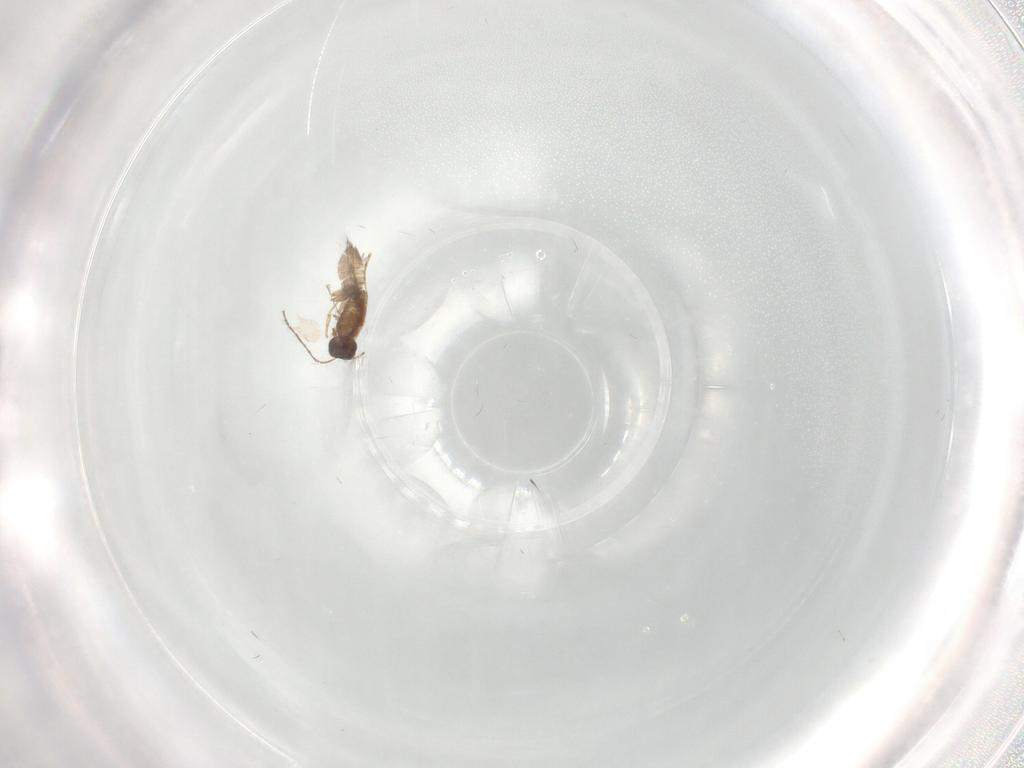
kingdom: Animalia
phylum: Arthropoda
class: Insecta
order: Hymenoptera
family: Mymaridae
